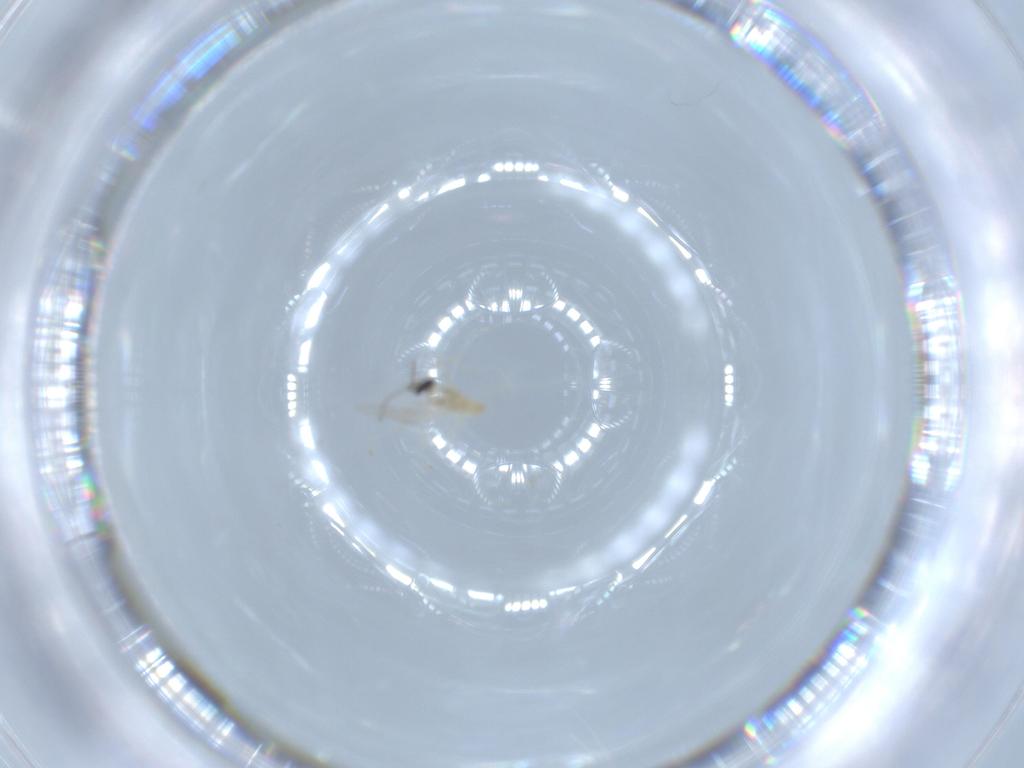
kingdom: Animalia
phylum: Arthropoda
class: Insecta
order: Diptera
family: Cecidomyiidae
